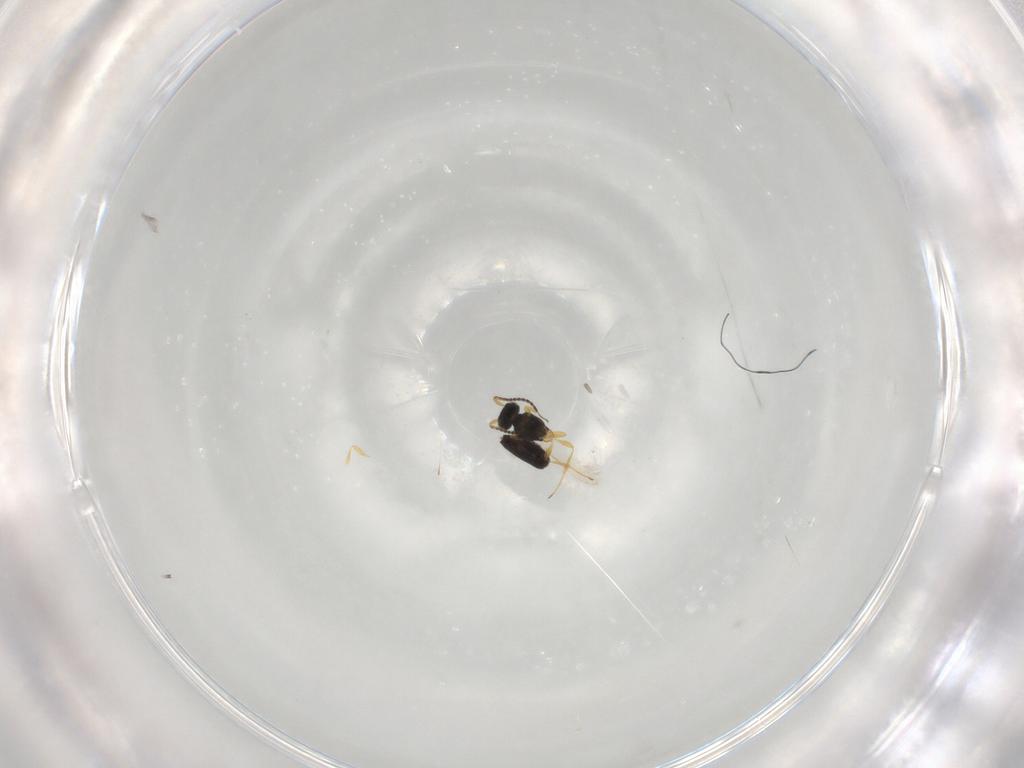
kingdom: Animalia
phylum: Arthropoda
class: Insecta
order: Hymenoptera
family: Scelionidae
